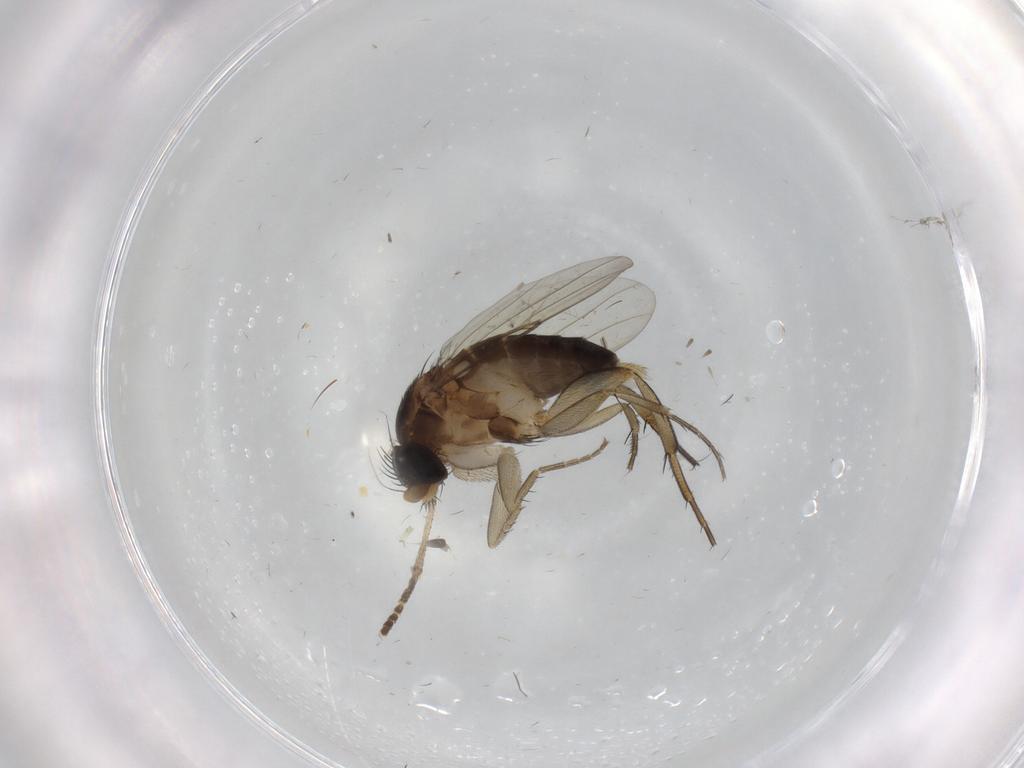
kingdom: Animalia
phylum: Arthropoda
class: Insecta
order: Diptera
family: Phoridae
